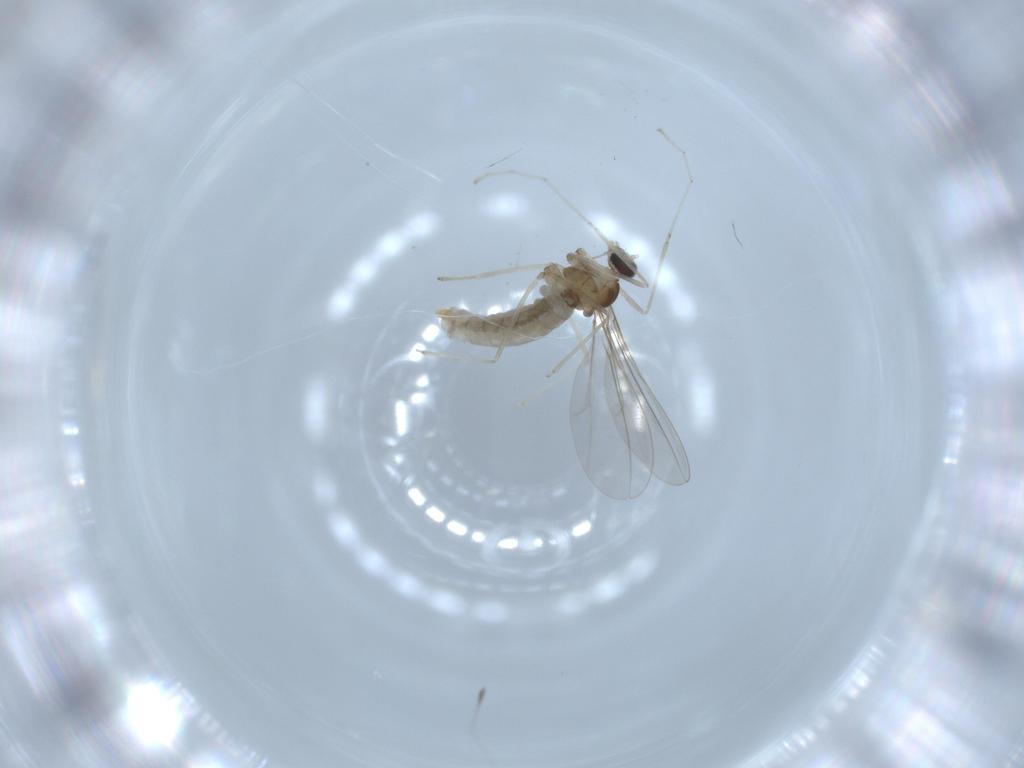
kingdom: Animalia
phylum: Arthropoda
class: Insecta
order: Diptera
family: Cecidomyiidae
